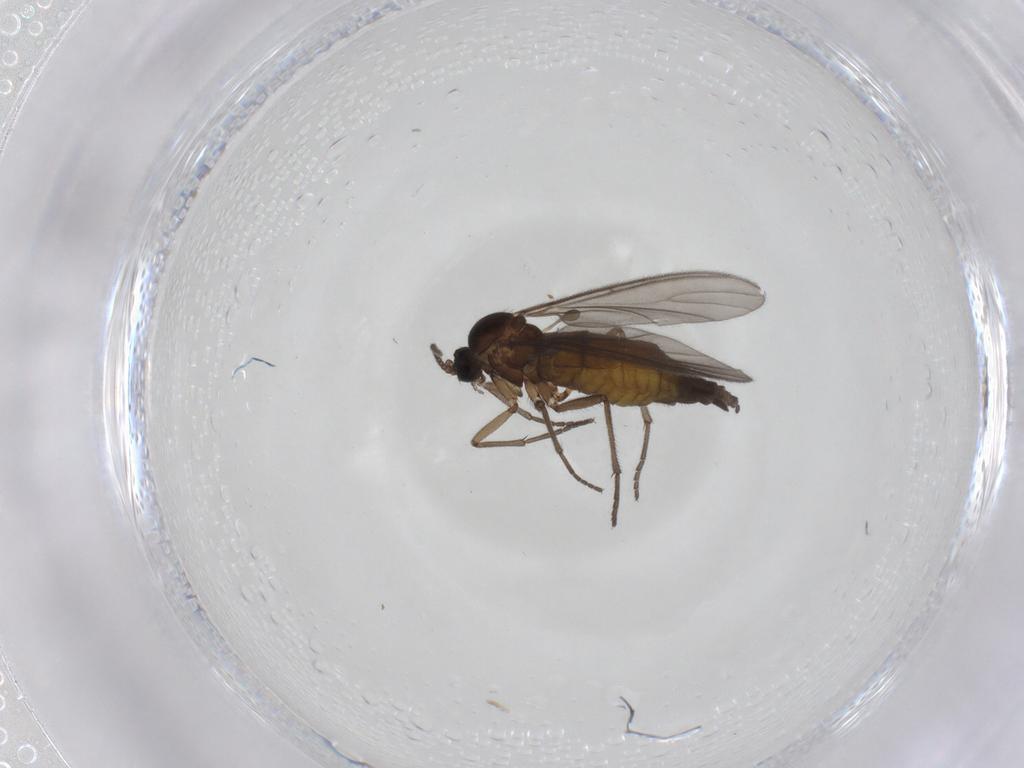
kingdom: Animalia
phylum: Arthropoda
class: Insecta
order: Diptera
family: Sciaridae
